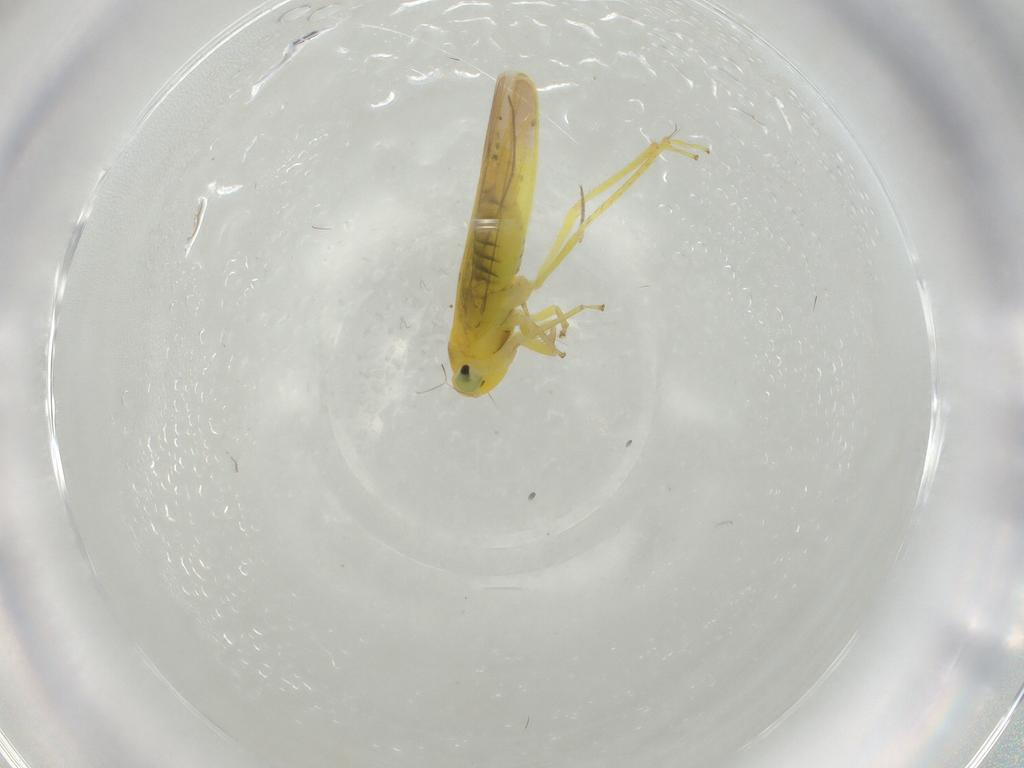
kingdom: Animalia
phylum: Arthropoda
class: Insecta
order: Hemiptera
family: Cicadellidae
